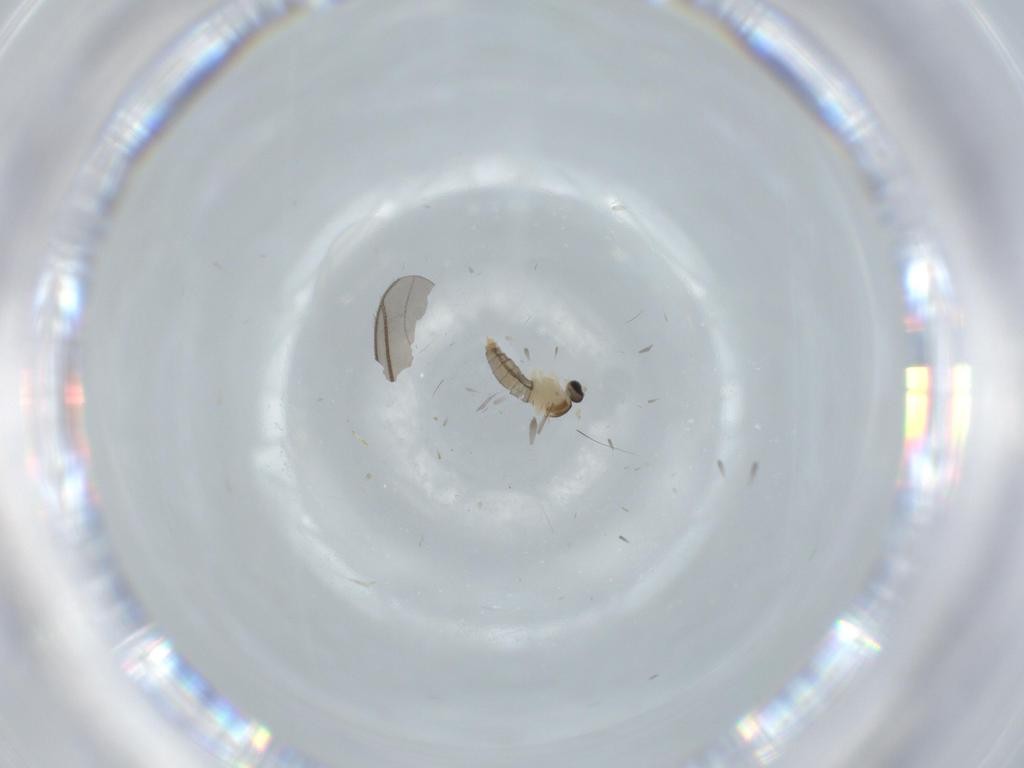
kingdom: Animalia
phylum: Arthropoda
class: Insecta
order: Diptera
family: Sciaridae
